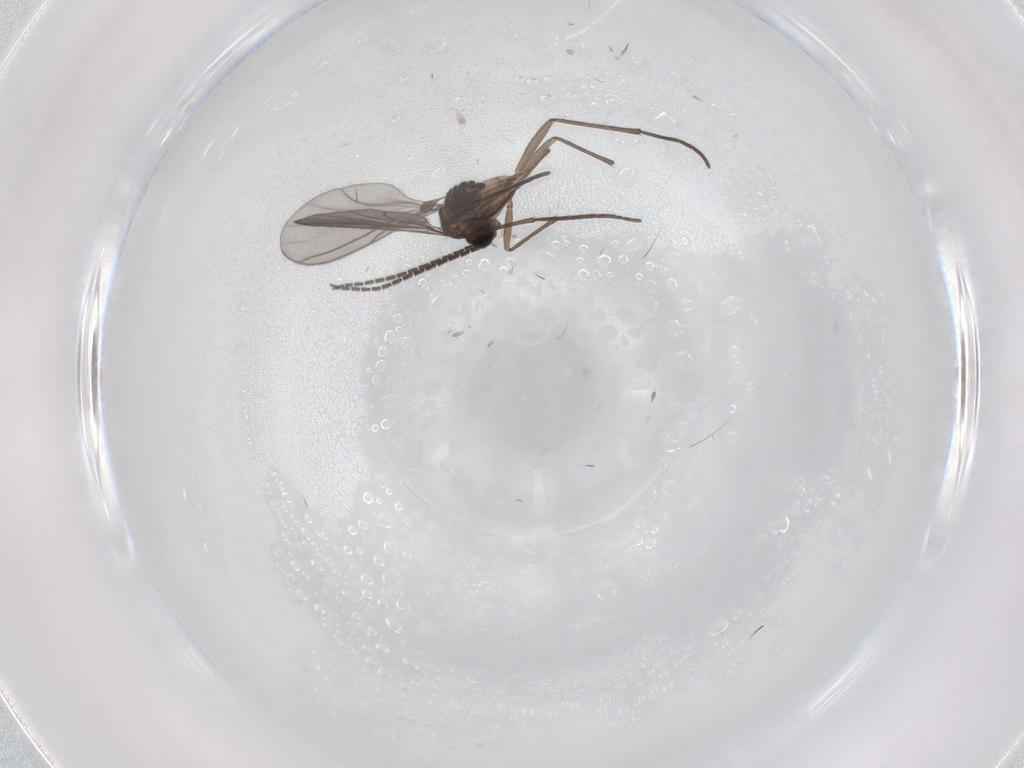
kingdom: Animalia
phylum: Arthropoda
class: Insecta
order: Diptera
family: Sciaridae
